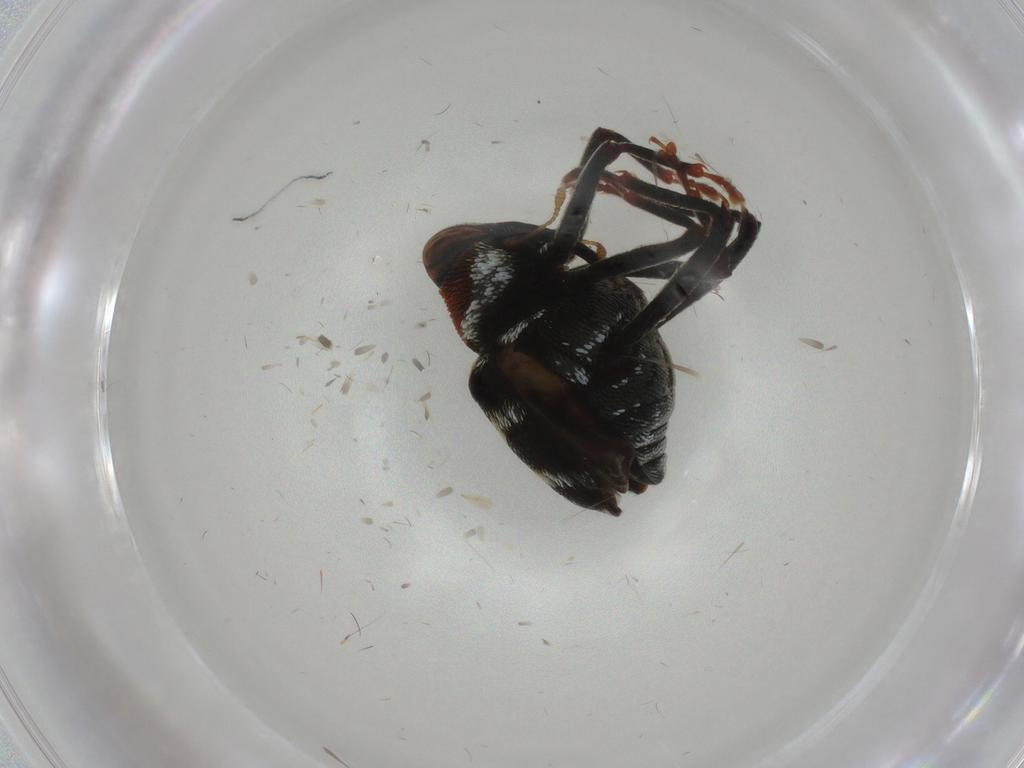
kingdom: Animalia
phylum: Arthropoda
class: Insecta
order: Coleoptera
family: Curculionidae
